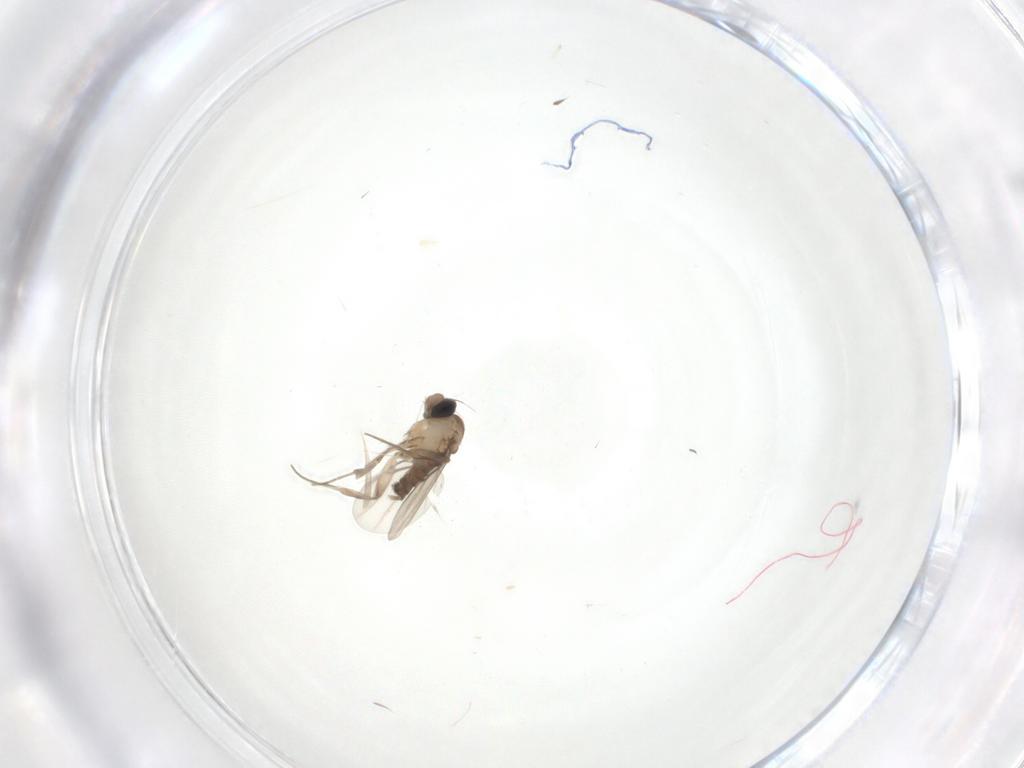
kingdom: Animalia
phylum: Arthropoda
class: Insecta
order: Diptera
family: Phoridae
